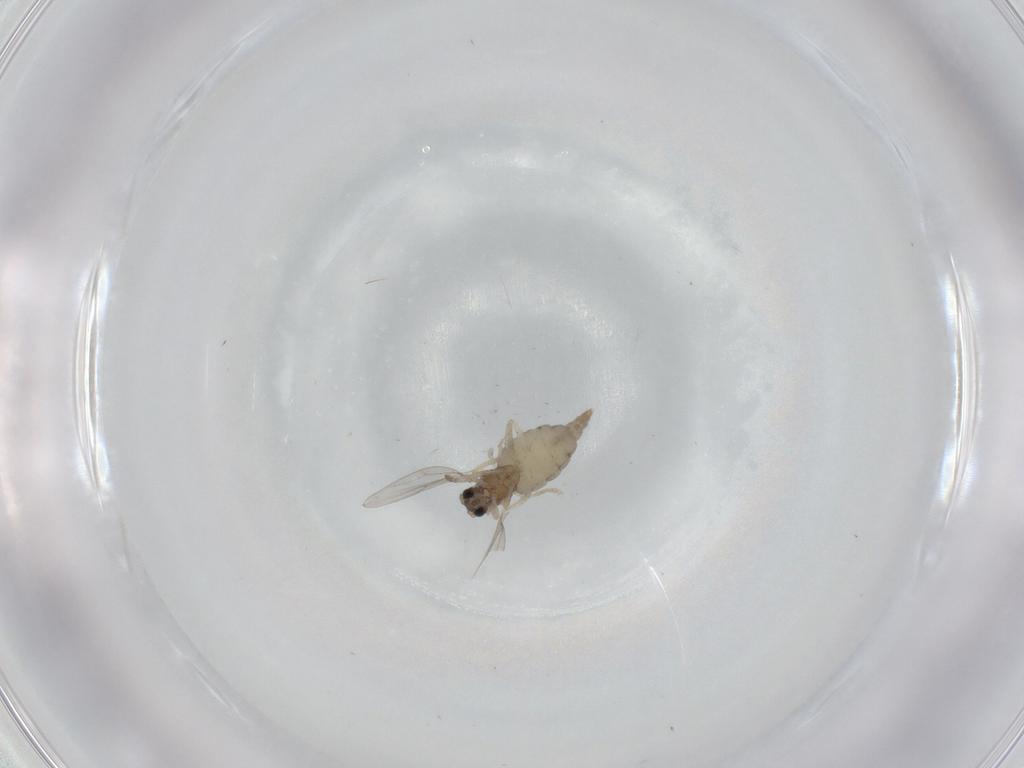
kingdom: Animalia
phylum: Arthropoda
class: Insecta
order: Diptera
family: Cecidomyiidae
